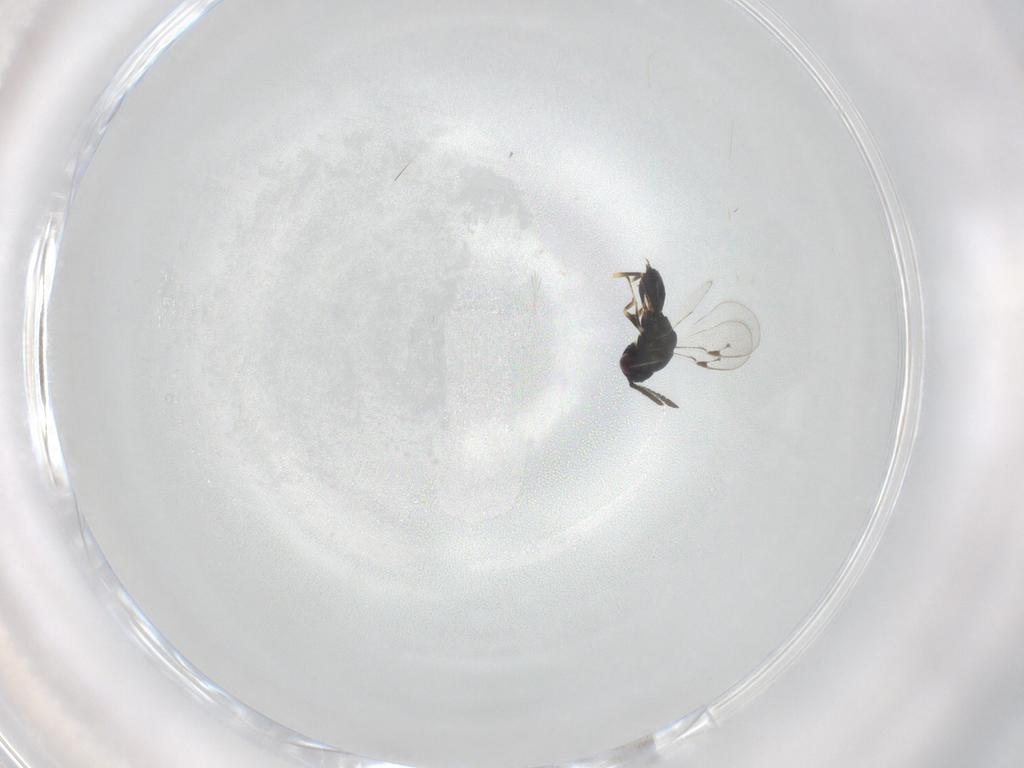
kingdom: Animalia
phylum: Arthropoda
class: Insecta
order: Hymenoptera
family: Pteromalidae
